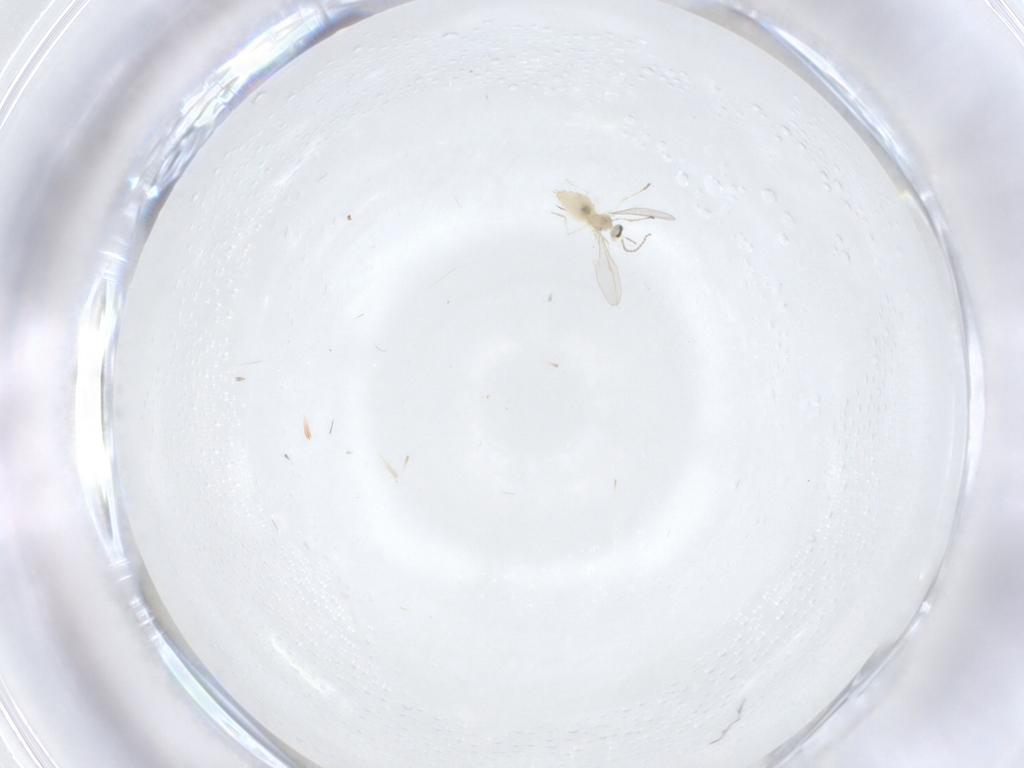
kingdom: Animalia
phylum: Arthropoda
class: Insecta
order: Diptera
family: Cecidomyiidae
